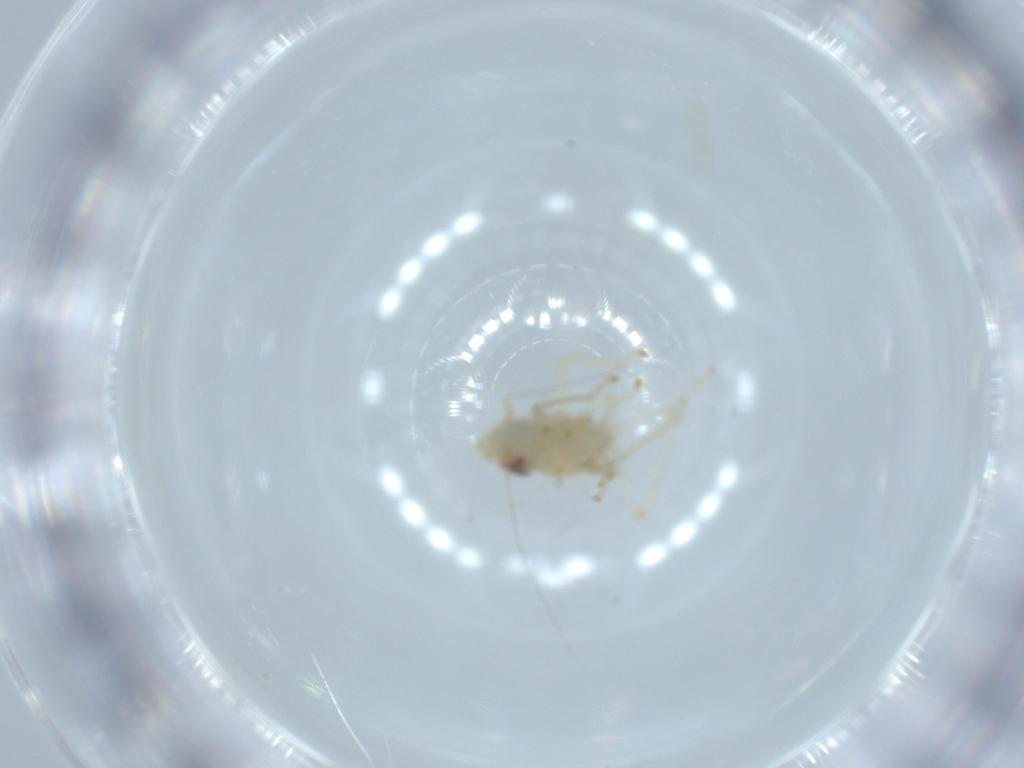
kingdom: Animalia
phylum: Arthropoda
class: Insecta
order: Hemiptera
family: Cicadellidae
